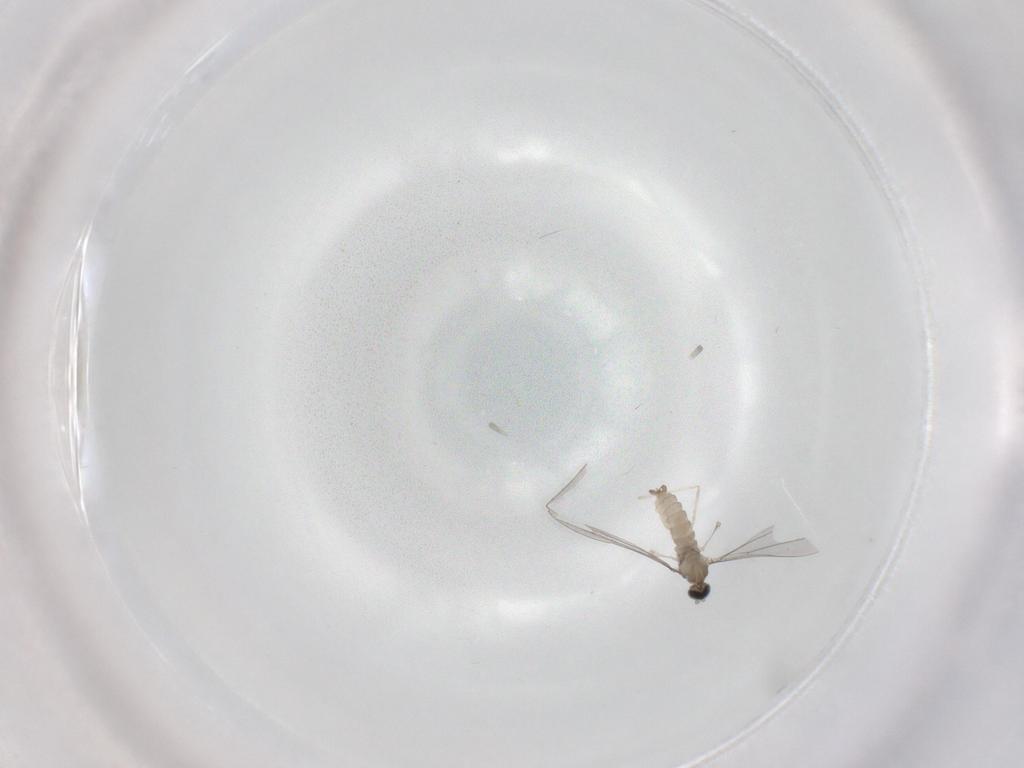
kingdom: Animalia
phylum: Arthropoda
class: Insecta
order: Diptera
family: Cecidomyiidae
